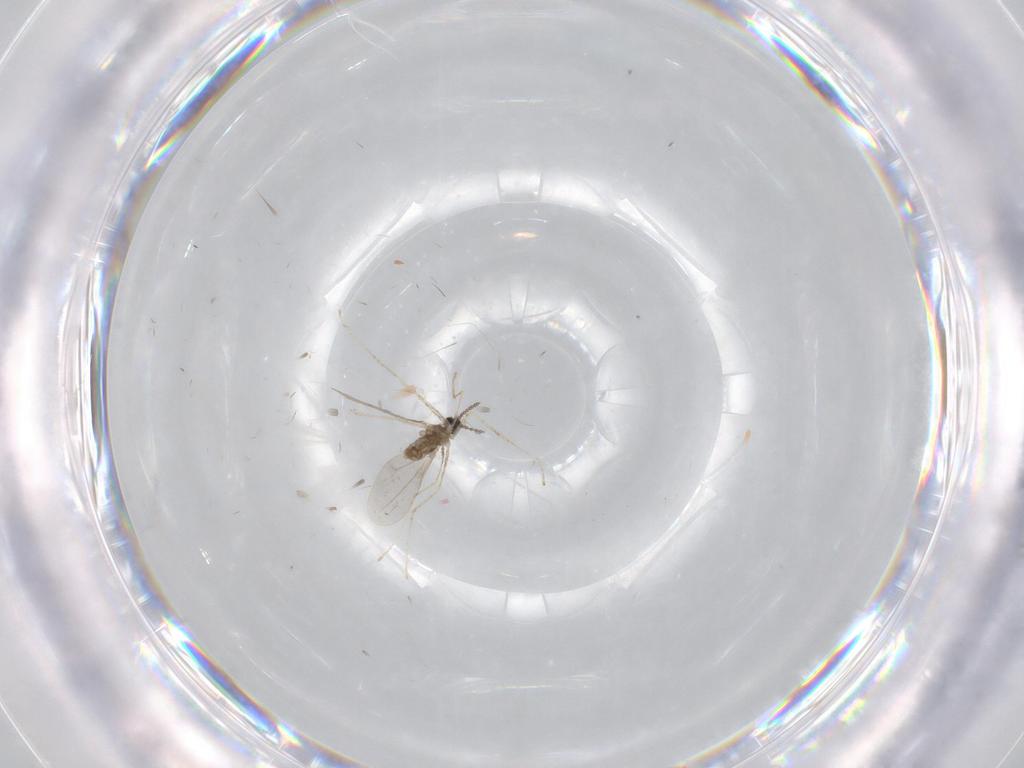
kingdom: Animalia
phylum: Arthropoda
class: Insecta
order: Diptera
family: Cecidomyiidae
